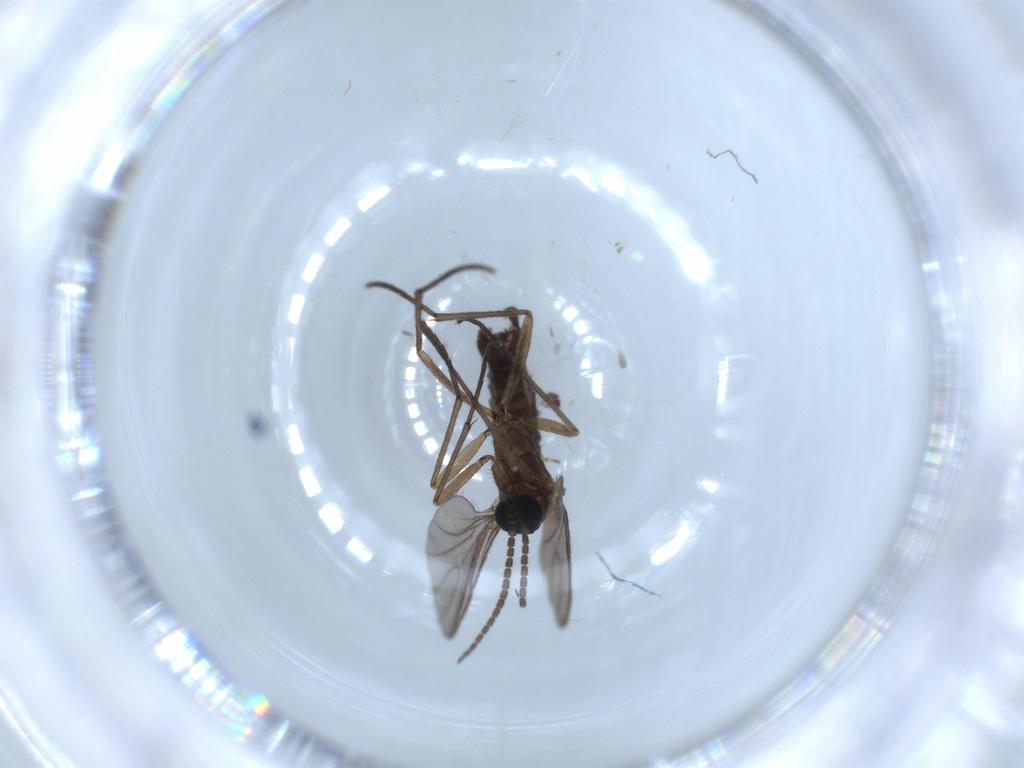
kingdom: Animalia
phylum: Arthropoda
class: Insecta
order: Diptera
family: Sciaridae
